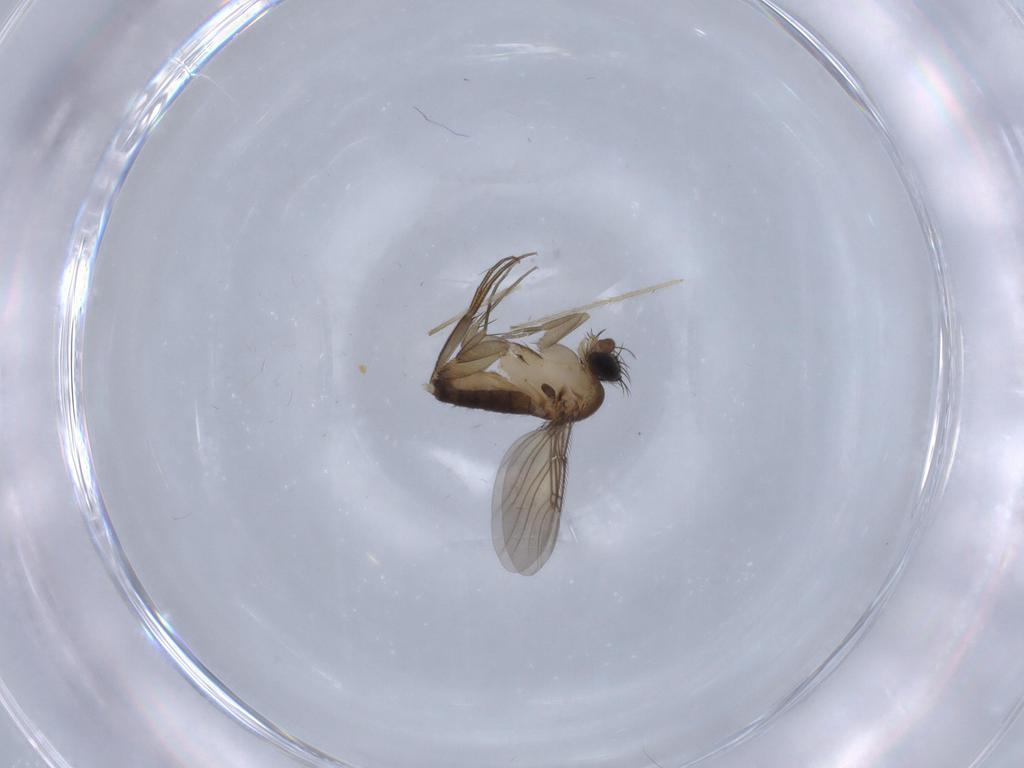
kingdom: Animalia
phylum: Arthropoda
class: Insecta
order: Diptera
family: Phoridae
